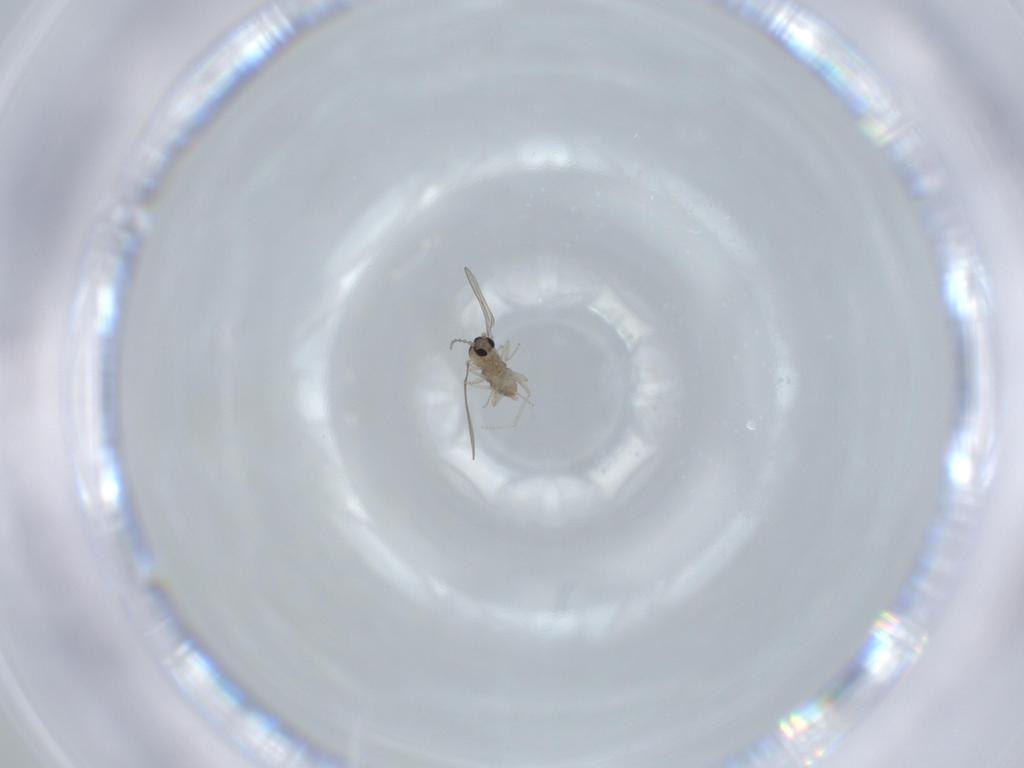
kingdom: Animalia
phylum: Arthropoda
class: Insecta
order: Diptera
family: Cecidomyiidae
